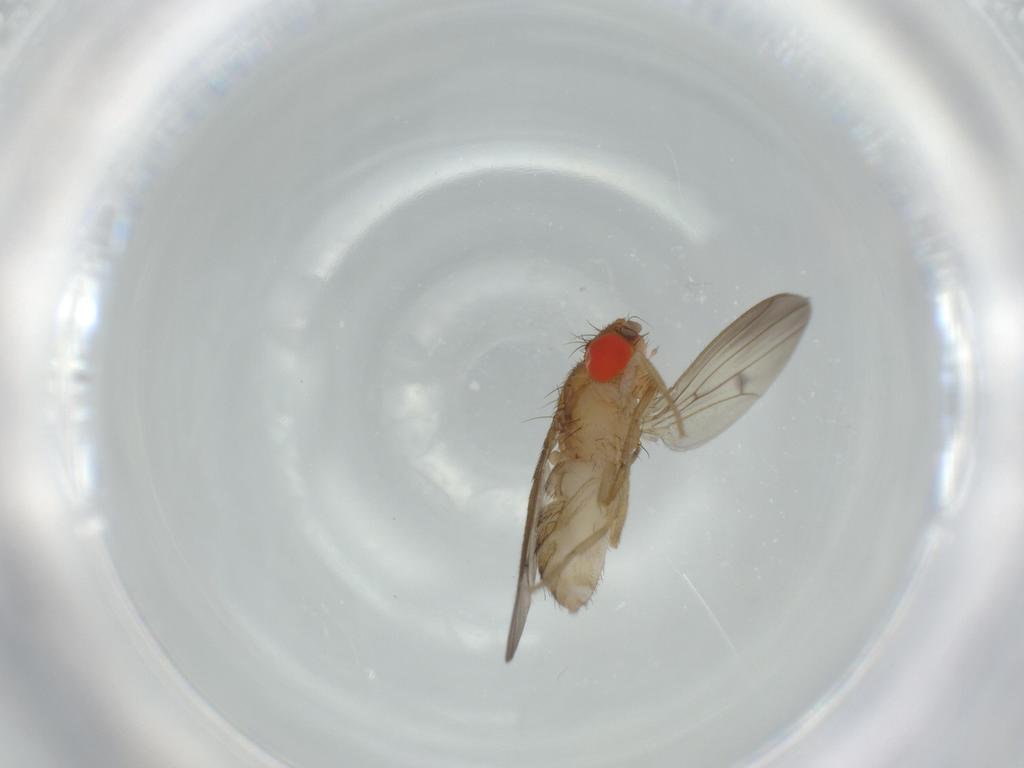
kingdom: Animalia
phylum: Arthropoda
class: Insecta
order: Diptera
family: Drosophilidae
